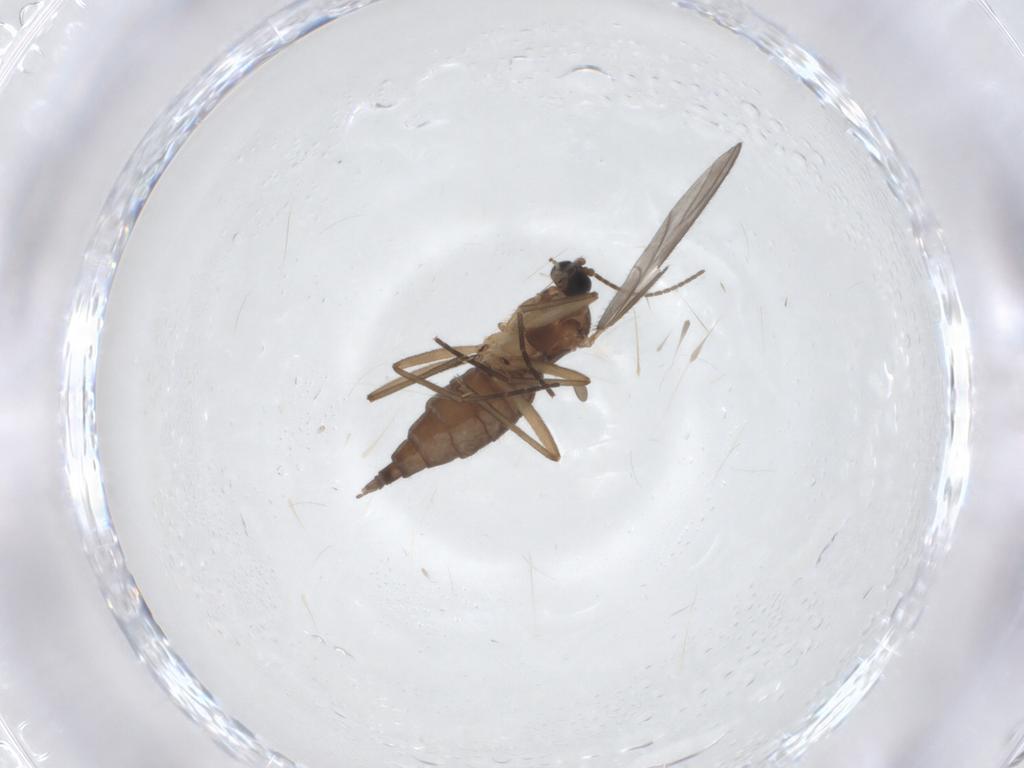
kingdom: Animalia
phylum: Arthropoda
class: Insecta
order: Diptera
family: Sciaridae
